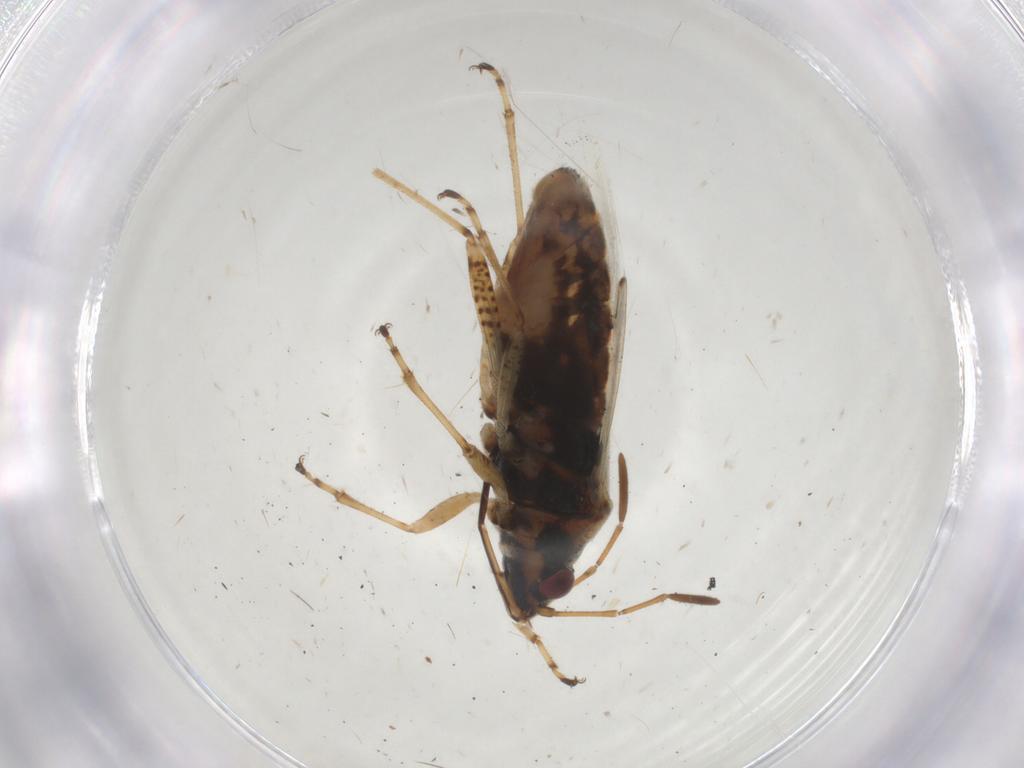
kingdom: Animalia
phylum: Arthropoda
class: Insecta
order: Hemiptera
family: Lygaeidae
